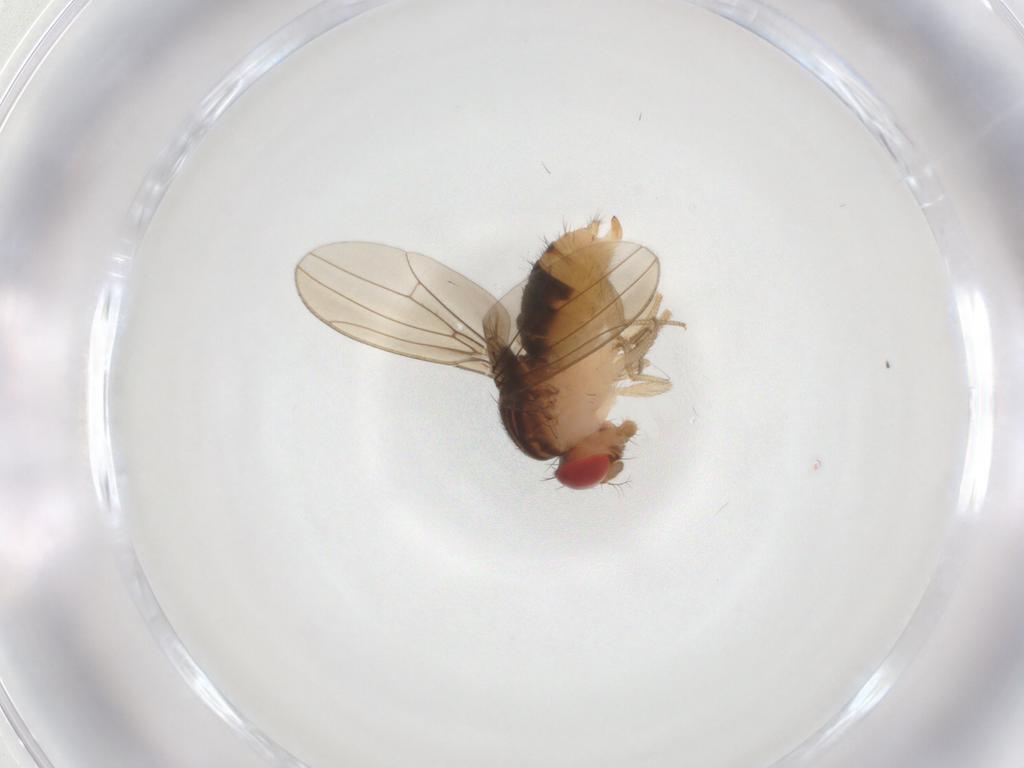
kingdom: Animalia
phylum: Arthropoda
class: Insecta
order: Diptera
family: Drosophilidae
